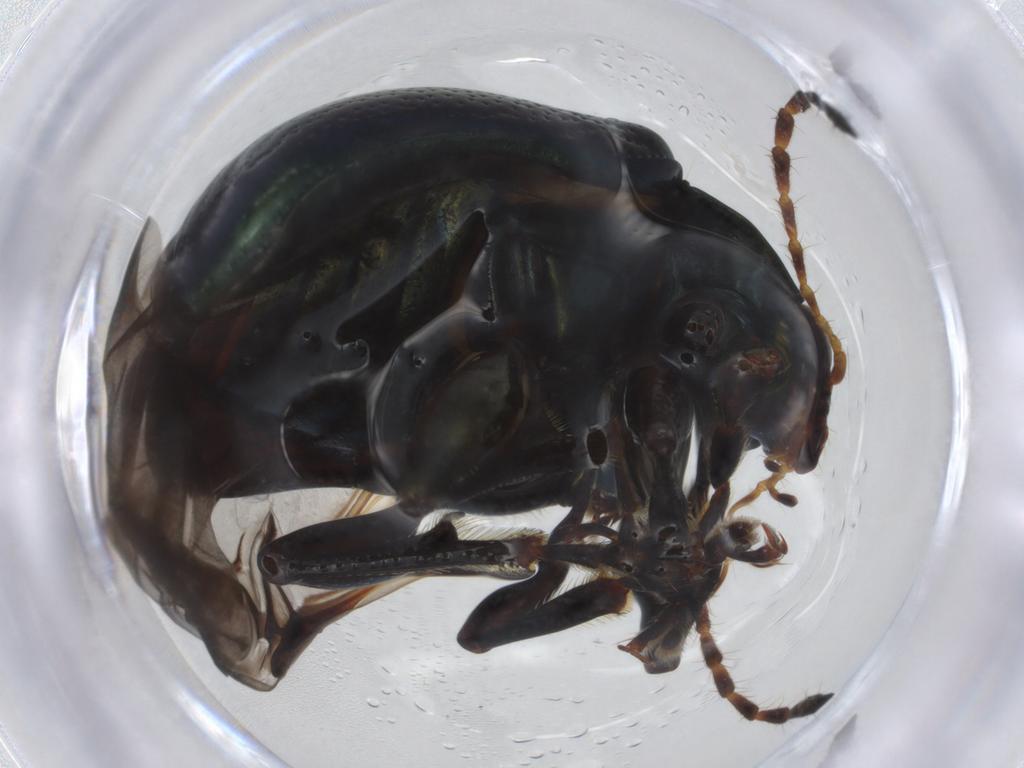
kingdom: Animalia
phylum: Arthropoda
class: Insecta
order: Coleoptera
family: Chrysomelidae
